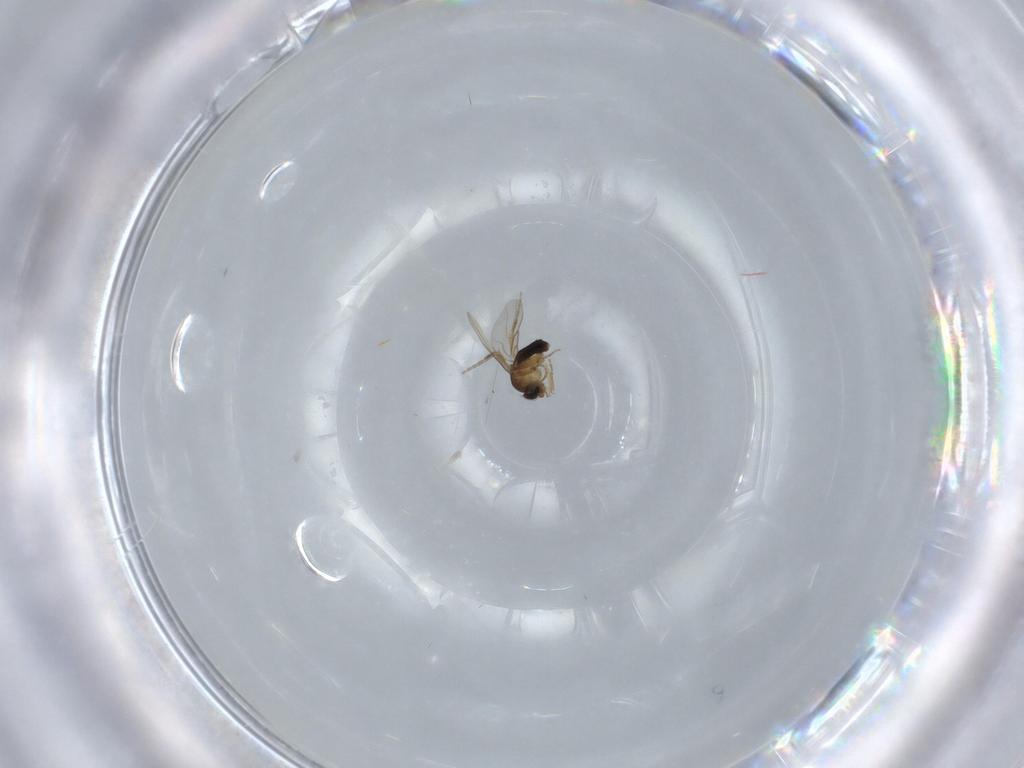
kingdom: Animalia
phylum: Arthropoda
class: Insecta
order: Diptera
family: Phoridae
